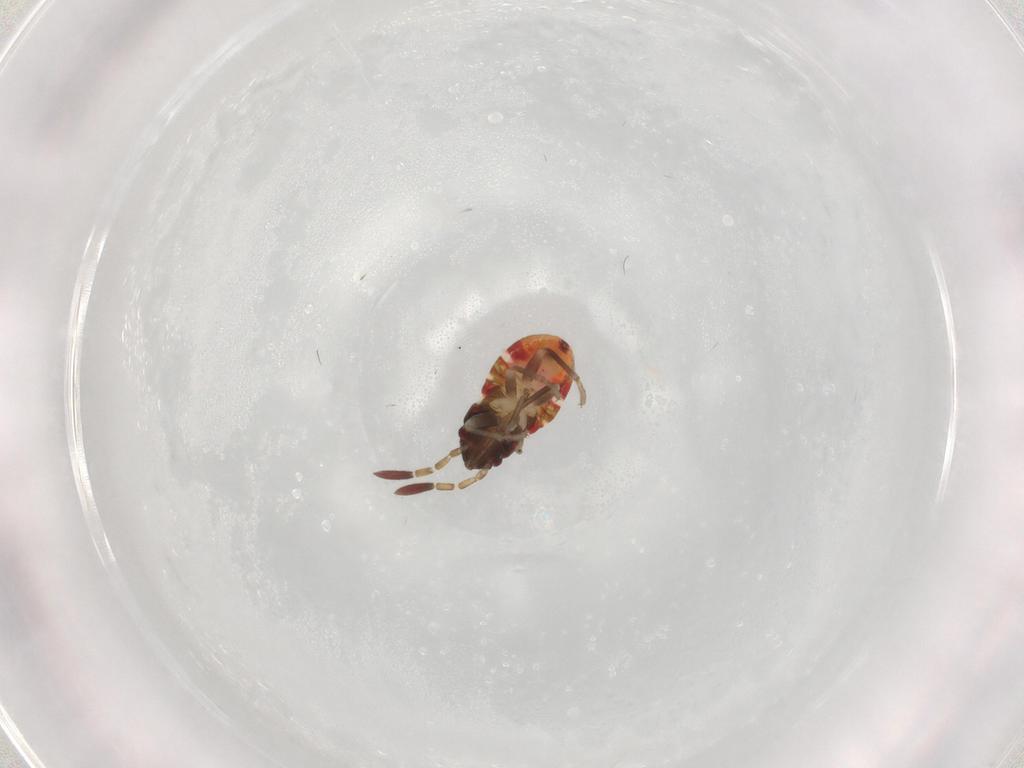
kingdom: Animalia
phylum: Arthropoda
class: Insecta
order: Hemiptera
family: Rhyparochromidae
